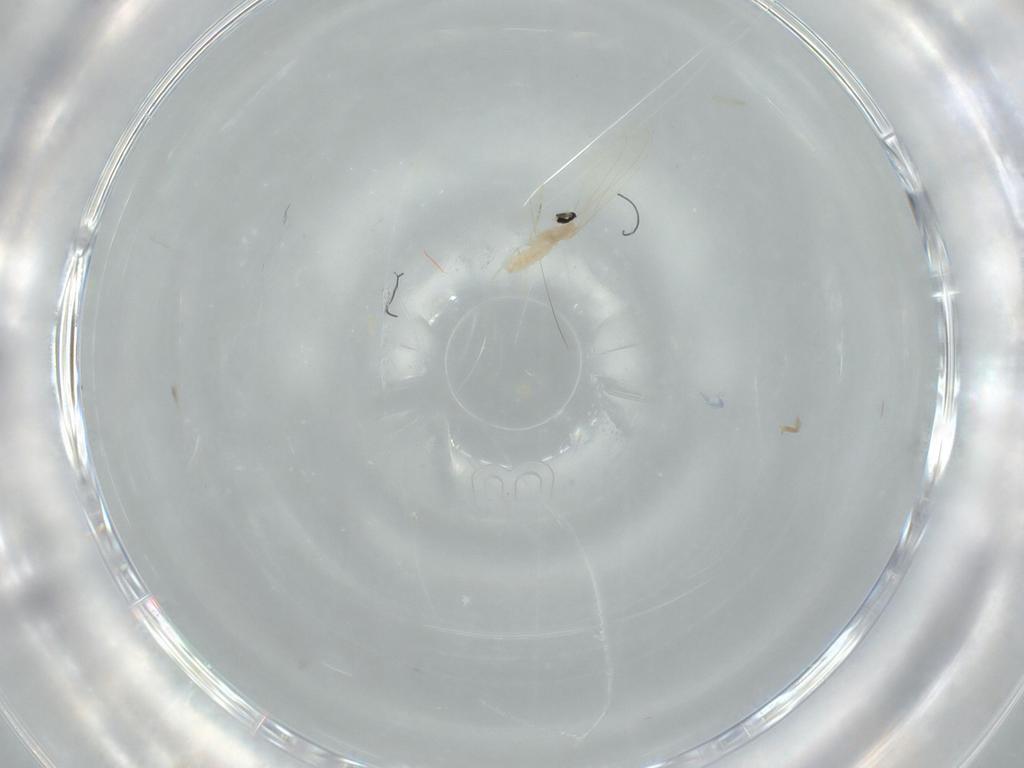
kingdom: Animalia
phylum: Arthropoda
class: Insecta
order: Diptera
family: Ceratopogonidae
